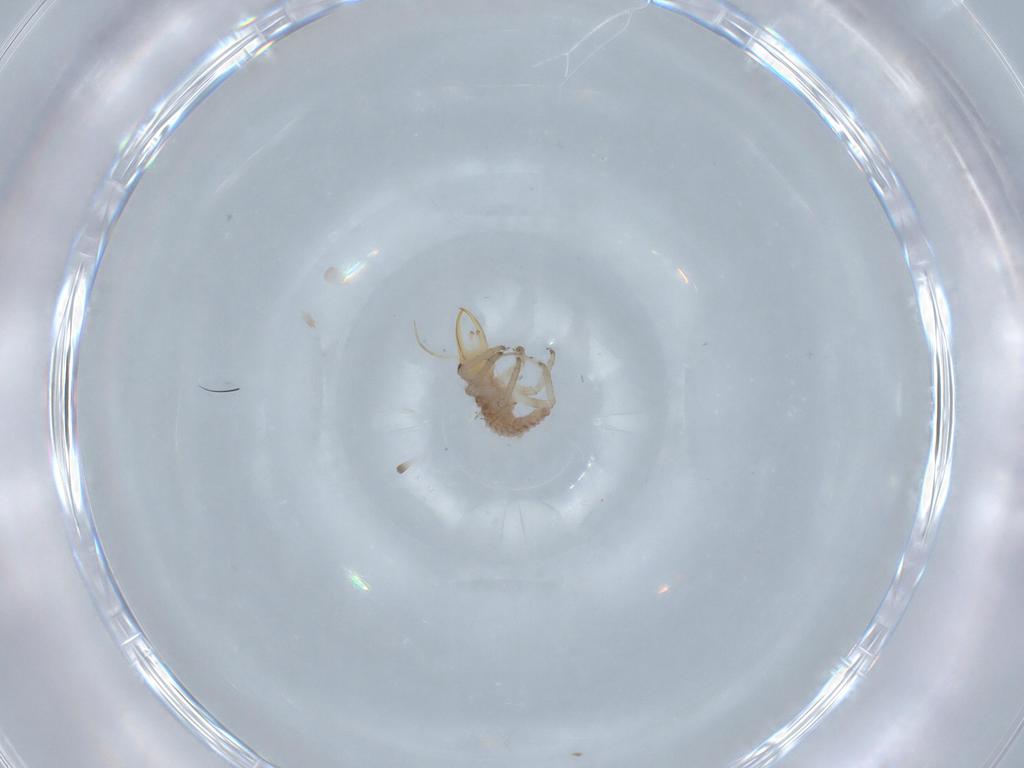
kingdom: Animalia
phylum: Arthropoda
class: Insecta
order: Neuroptera
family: Chrysopidae
